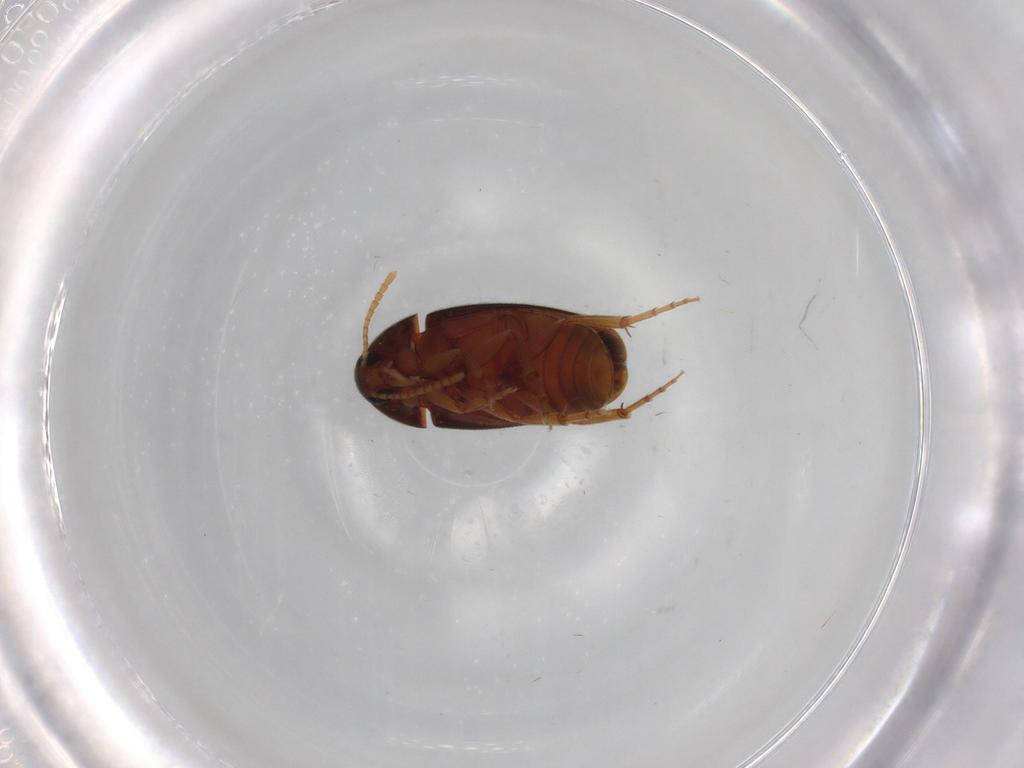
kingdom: Animalia
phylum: Arthropoda
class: Insecta
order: Coleoptera
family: Scraptiidae
